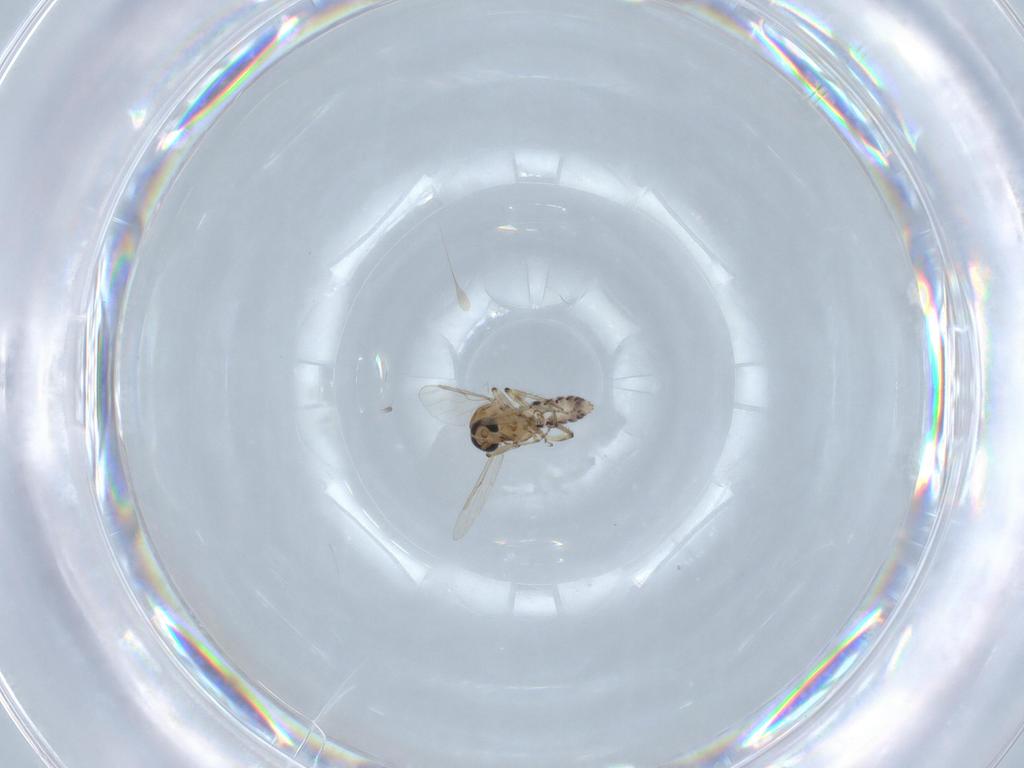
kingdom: Animalia
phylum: Arthropoda
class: Insecta
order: Diptera
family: Ceratopogonidae
